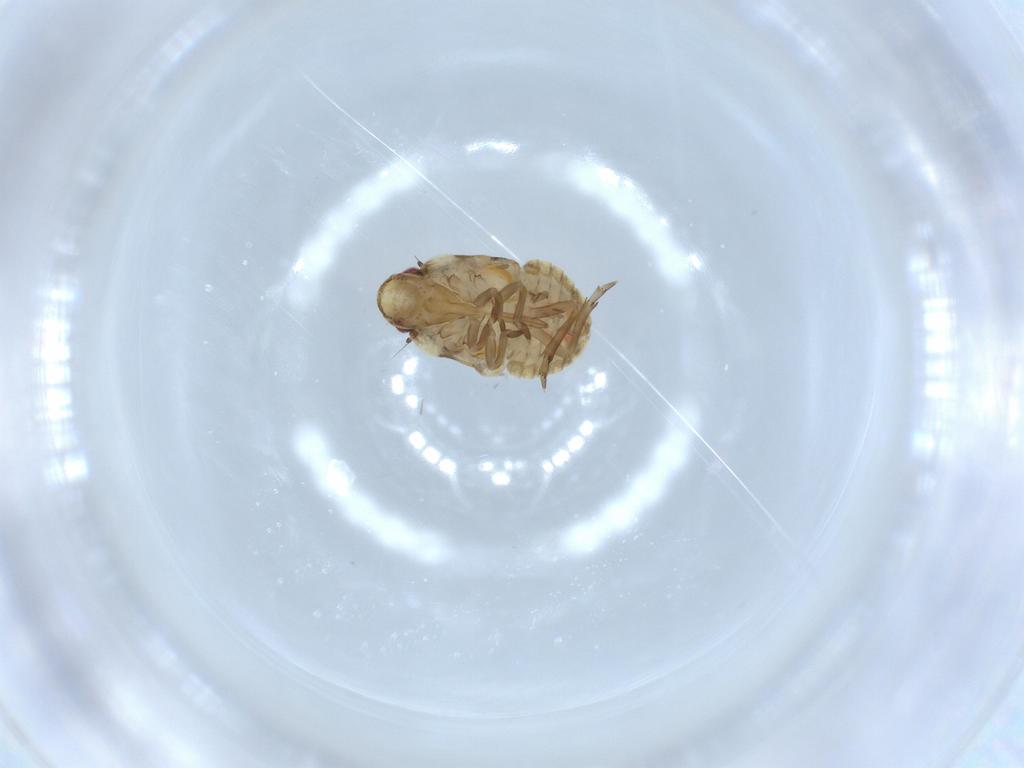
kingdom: Animalia
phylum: Arthropoda
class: Insecta
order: Hemiptera
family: Flatidae
